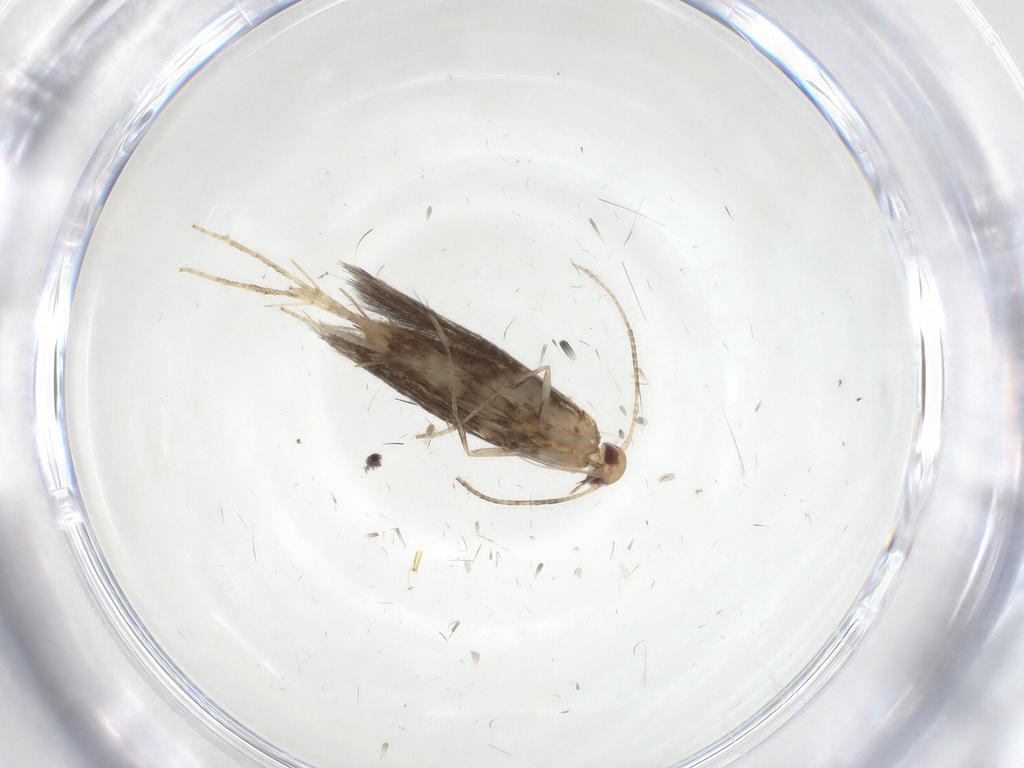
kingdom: Animalia
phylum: Arthropoda
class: Insecta
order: Lepidoptera
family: Gracillariidae
